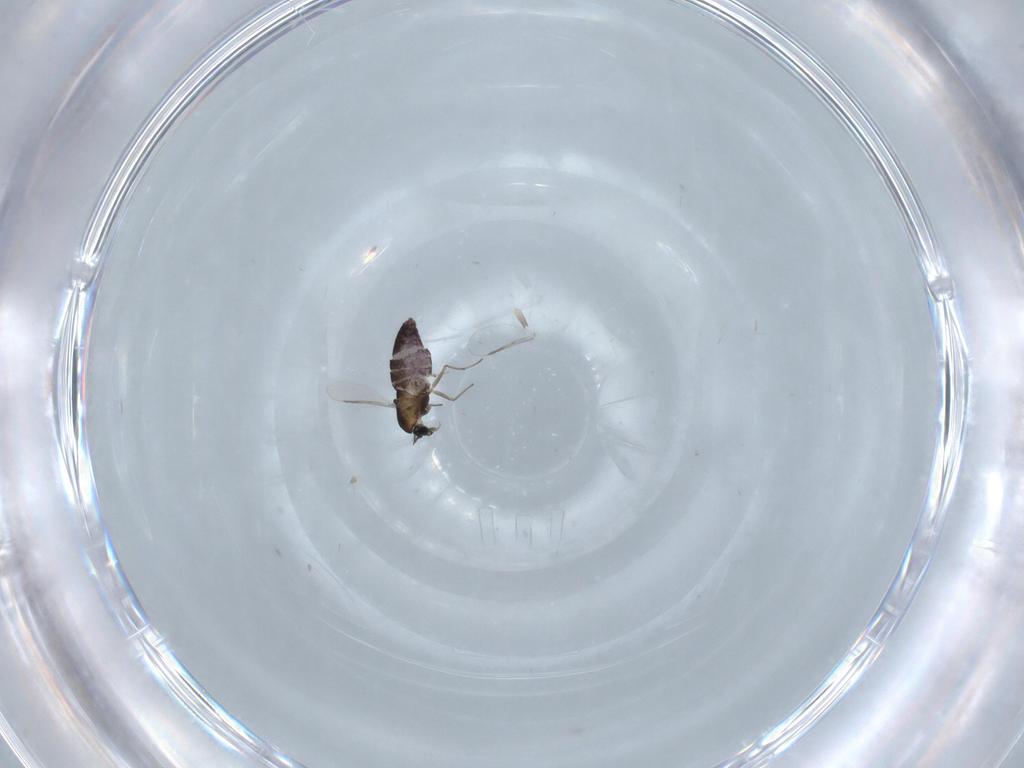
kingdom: Animalia
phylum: Arthropoda
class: Insecta
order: Diptera
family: Chironomidae
